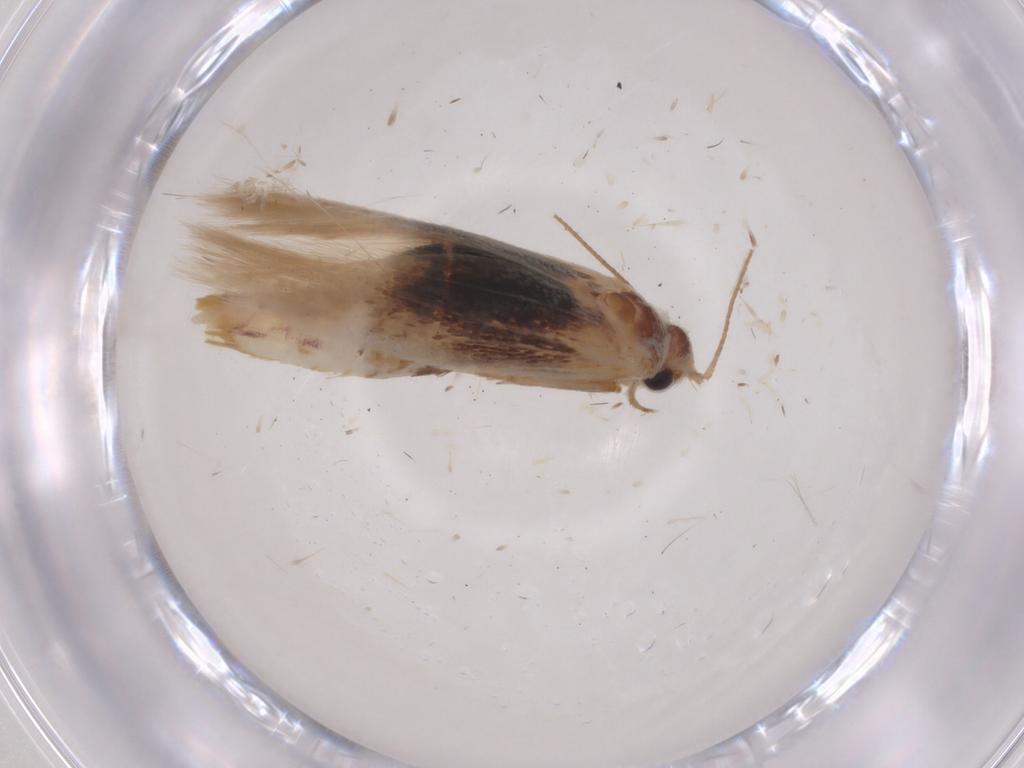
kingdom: Animalia
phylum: Arthropoda
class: Insecta
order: Lepidoptera
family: Scythrididae
